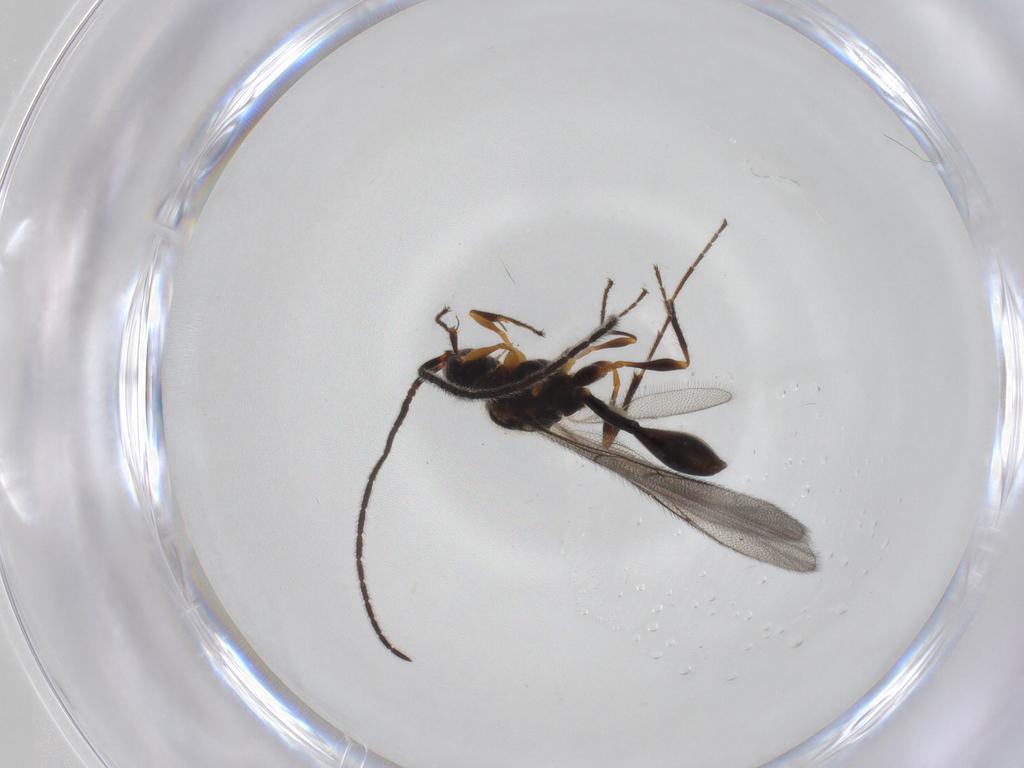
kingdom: Animalia
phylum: Arthropoda
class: Insecta
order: Hymenoptera
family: Diapriidae
